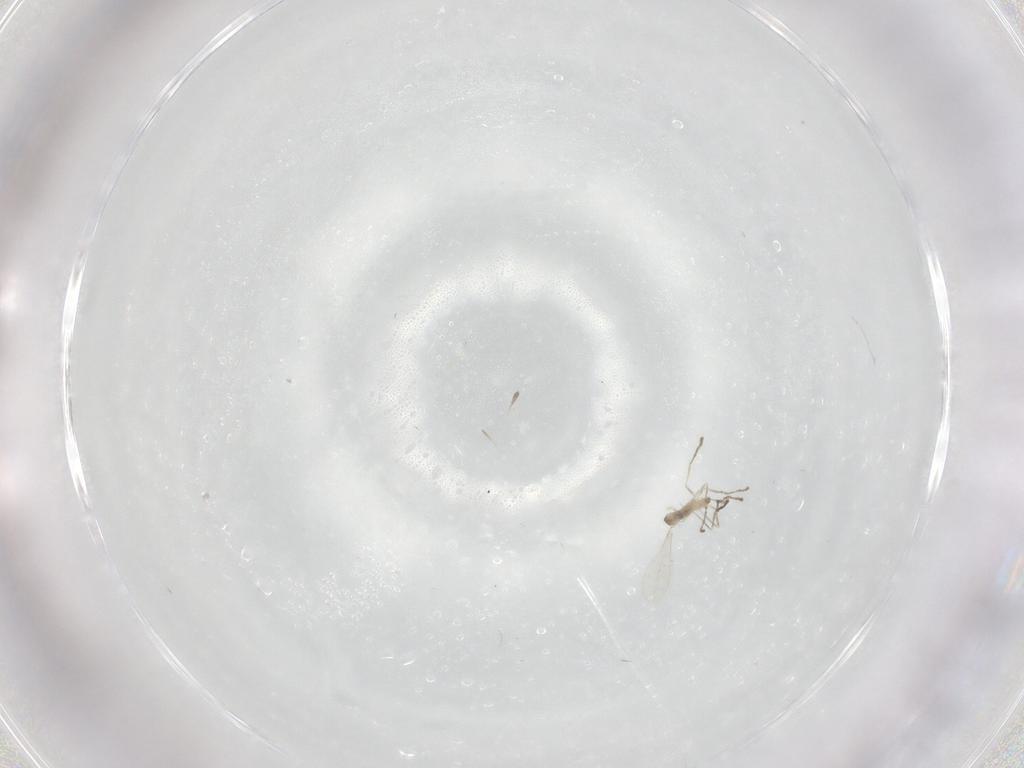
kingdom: Animalia
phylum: Arthropoda
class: Insecta
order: Diptera
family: Cecidomyiidae
